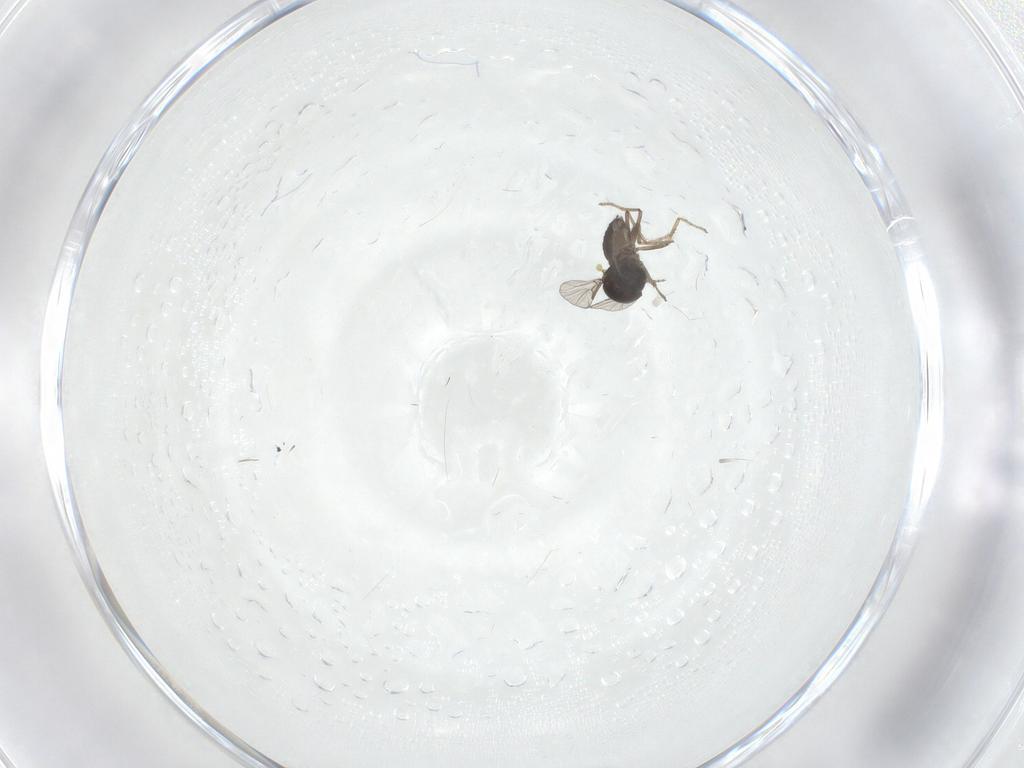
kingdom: Animalia
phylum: Arthropoda
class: Insecta
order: Diptera
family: Ceratopogonidae
